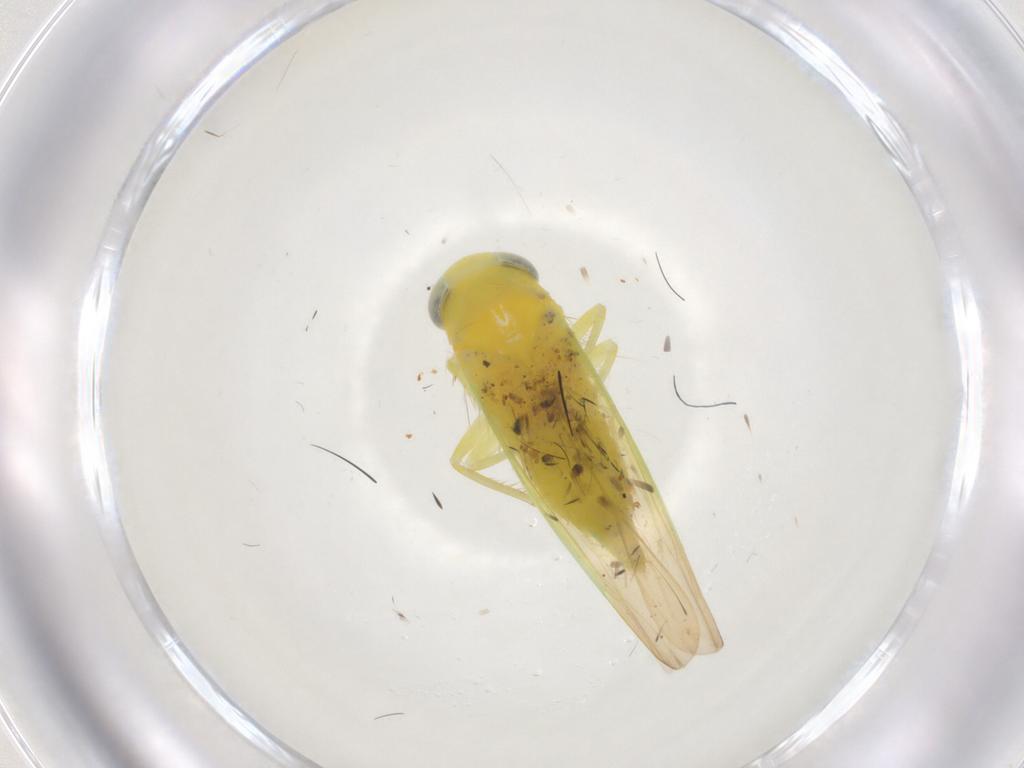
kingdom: Animalia
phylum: Arthropoda
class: Insecta
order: Hemiptera
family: Cicadellidae
